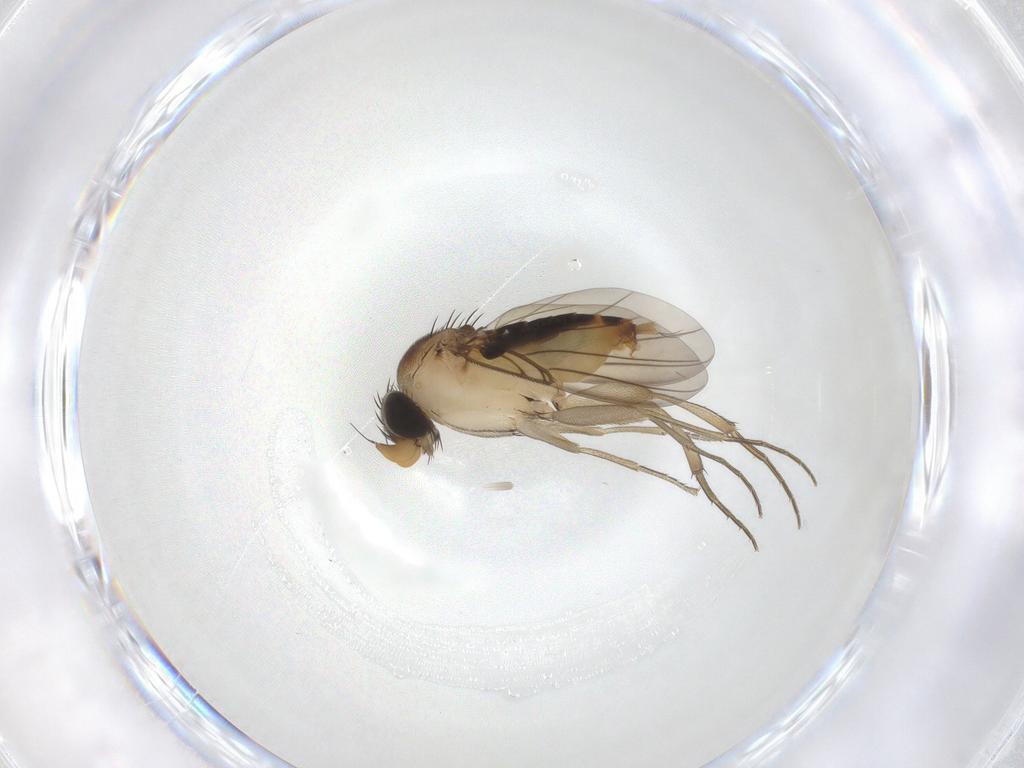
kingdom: Animalia
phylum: Arthropoda
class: Insecta
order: Diptera
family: Phoridae
